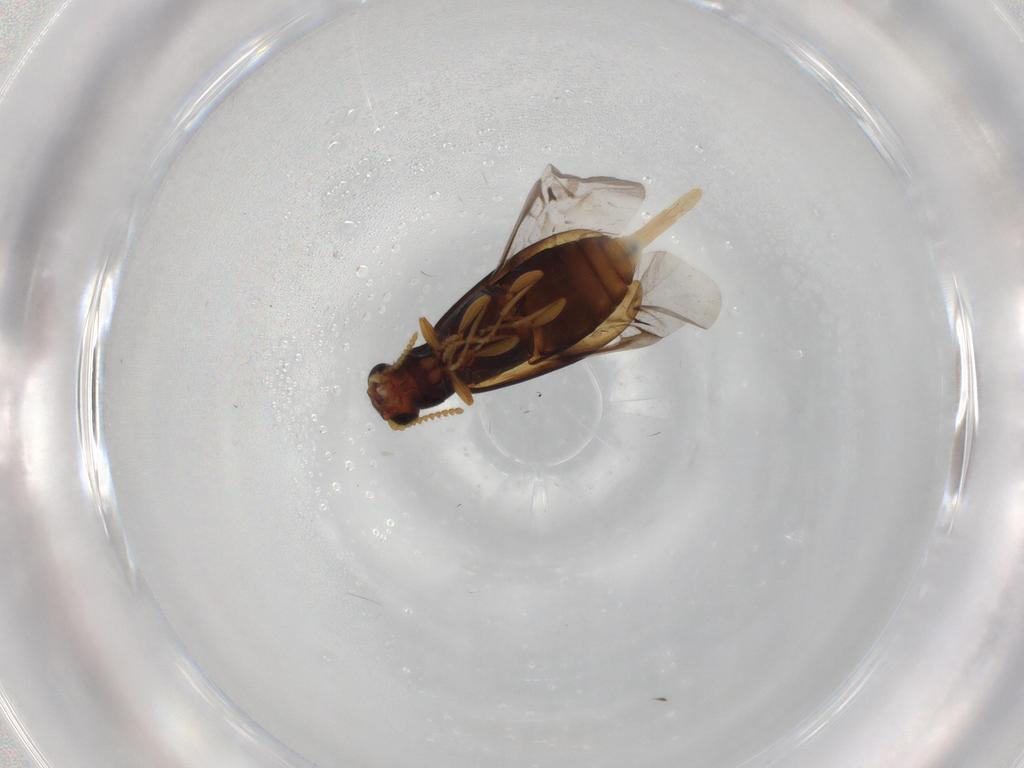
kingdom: Animalia
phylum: Arthropoda
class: Insecta
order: Coleoptera
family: Mycteridae
